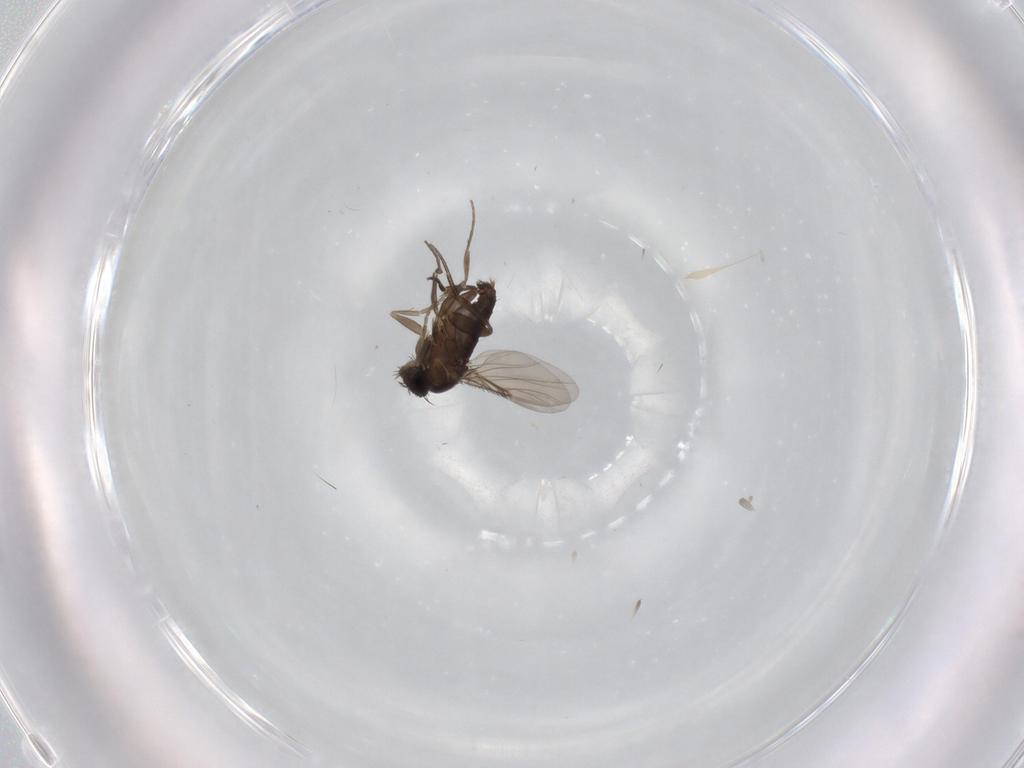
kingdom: Animalia
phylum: Arthropoda
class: Insecta
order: Diptera
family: Phoridae
